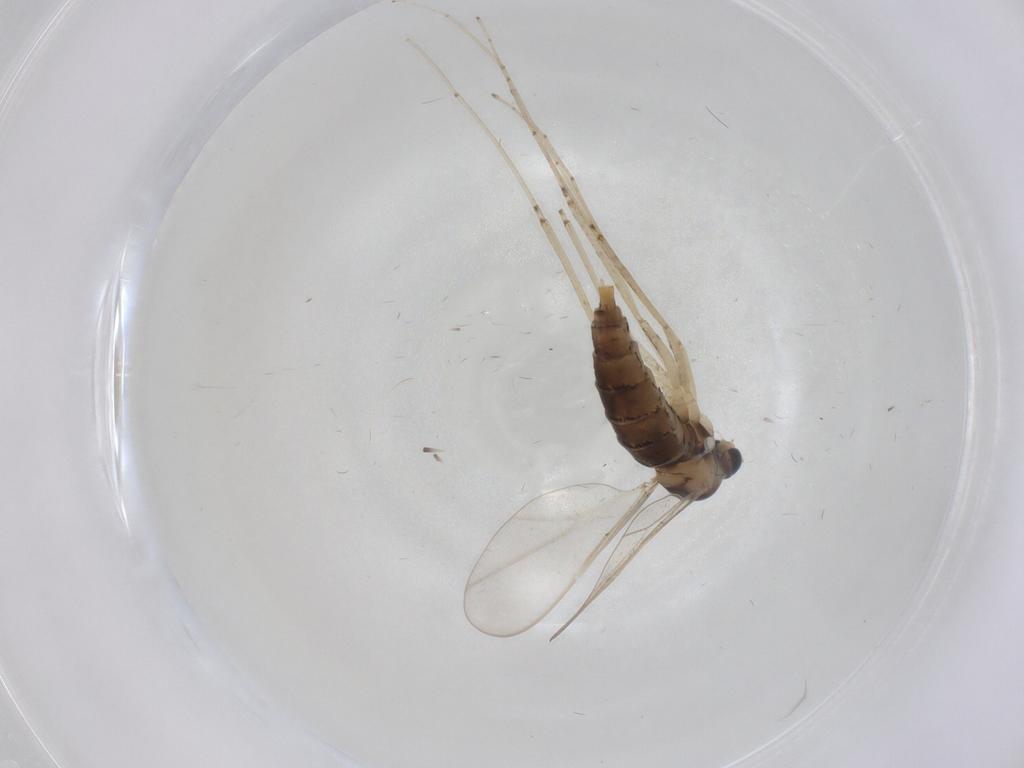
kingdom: Animalia
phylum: Arthropoda
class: Insecta
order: Diptera
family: Cecidomyiidae
